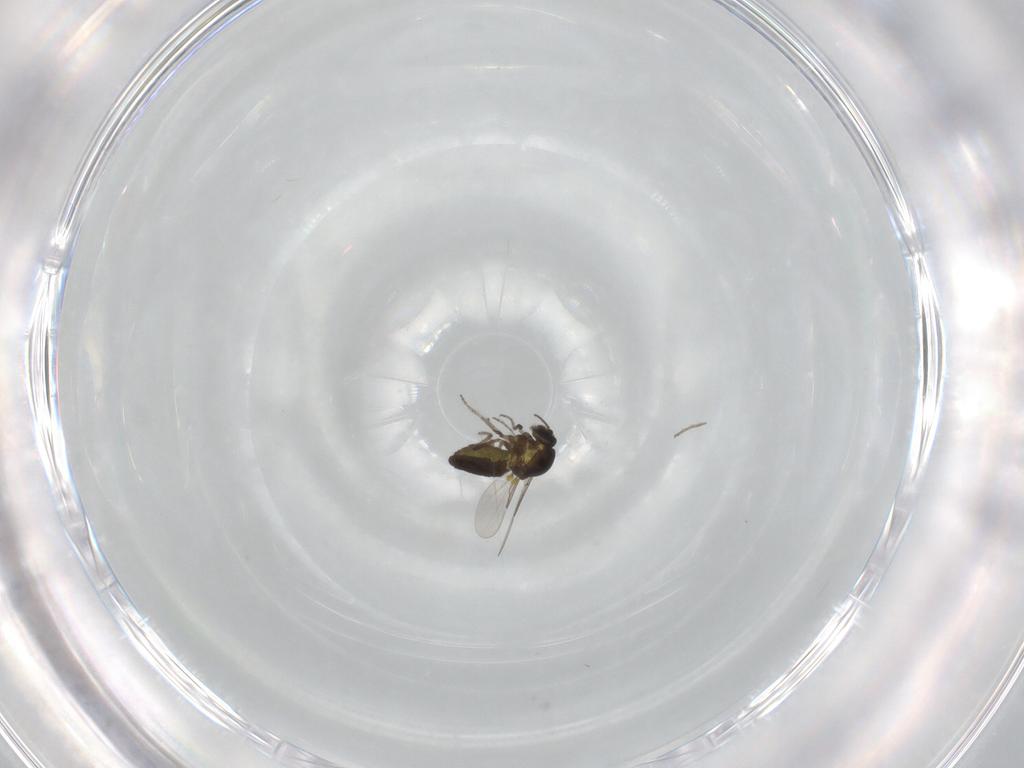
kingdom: Animalia
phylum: Arthropoda
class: Insecta
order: Diptera
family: Ceratopogonidae
